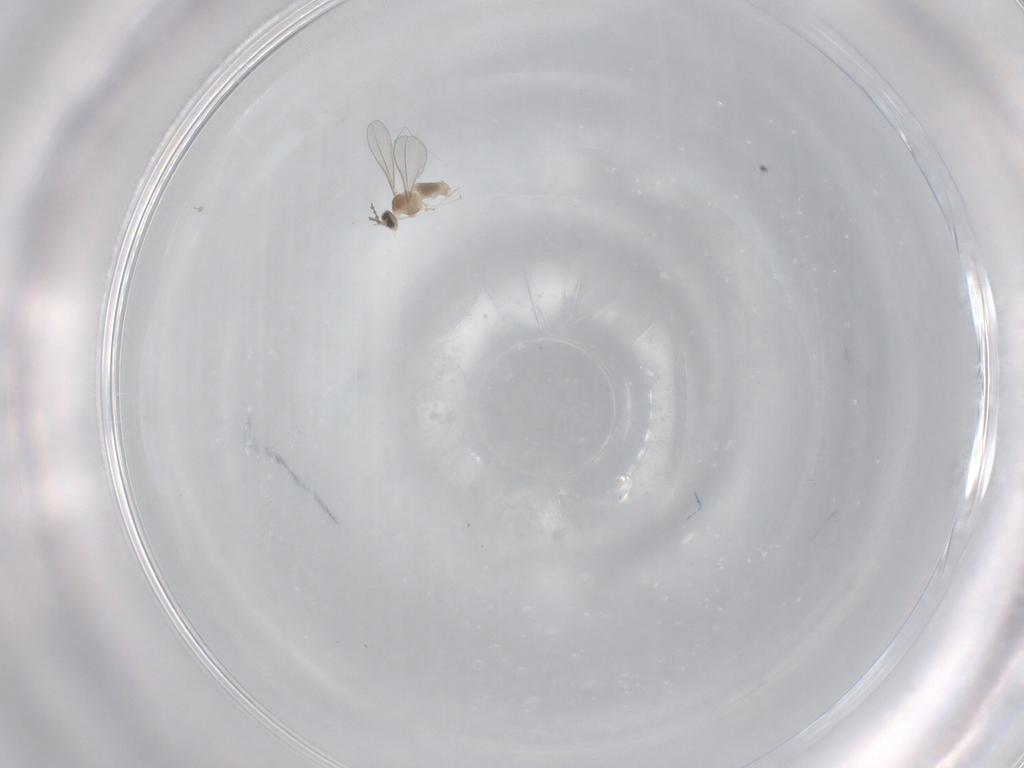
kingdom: Animalia
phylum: Arthropoda
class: Insecta
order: Diptera
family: Cecidomyiidae
